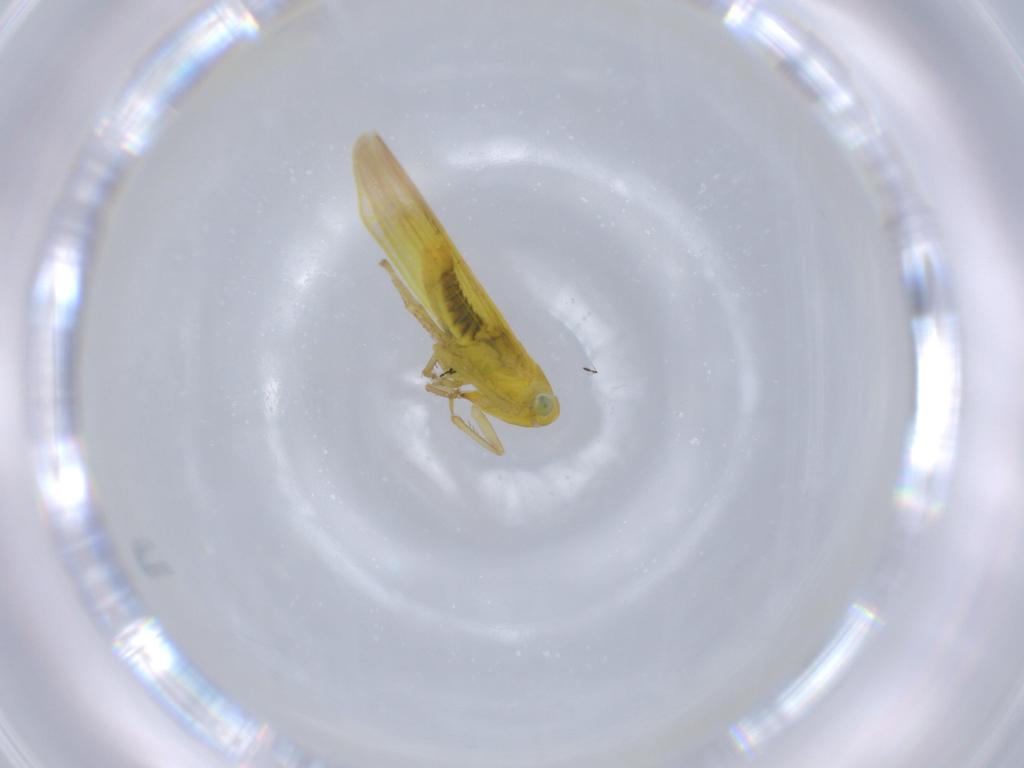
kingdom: Animalia
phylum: Arthropoda
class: Insecta
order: Hemiptera
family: Cicadellidae
